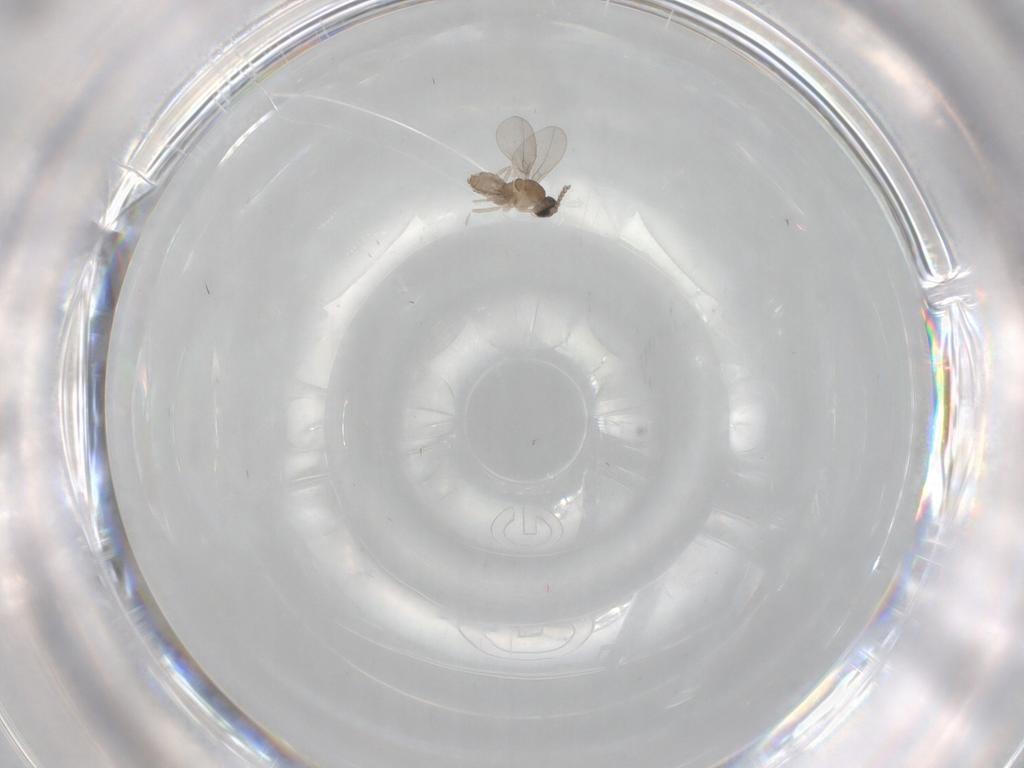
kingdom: Animalia
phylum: Arthropoda
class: Insecta
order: Diptera
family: Cecidomyiidae
